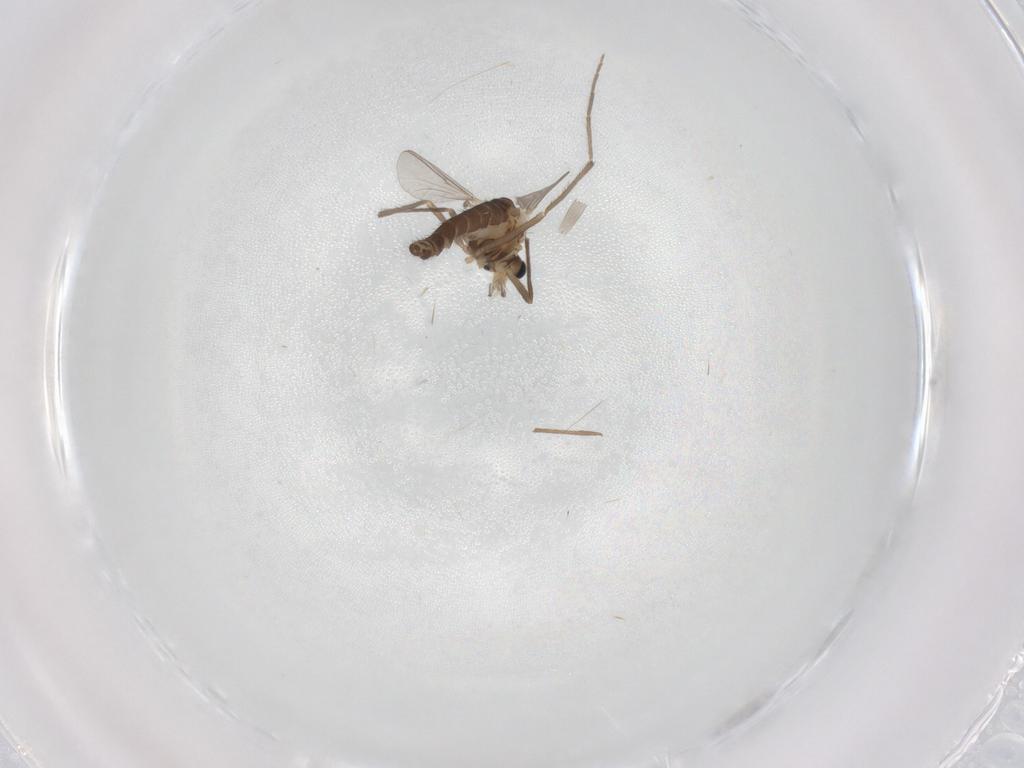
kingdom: Animalia
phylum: Arthropoda
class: Insecta
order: Diptera
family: Chironomidae
